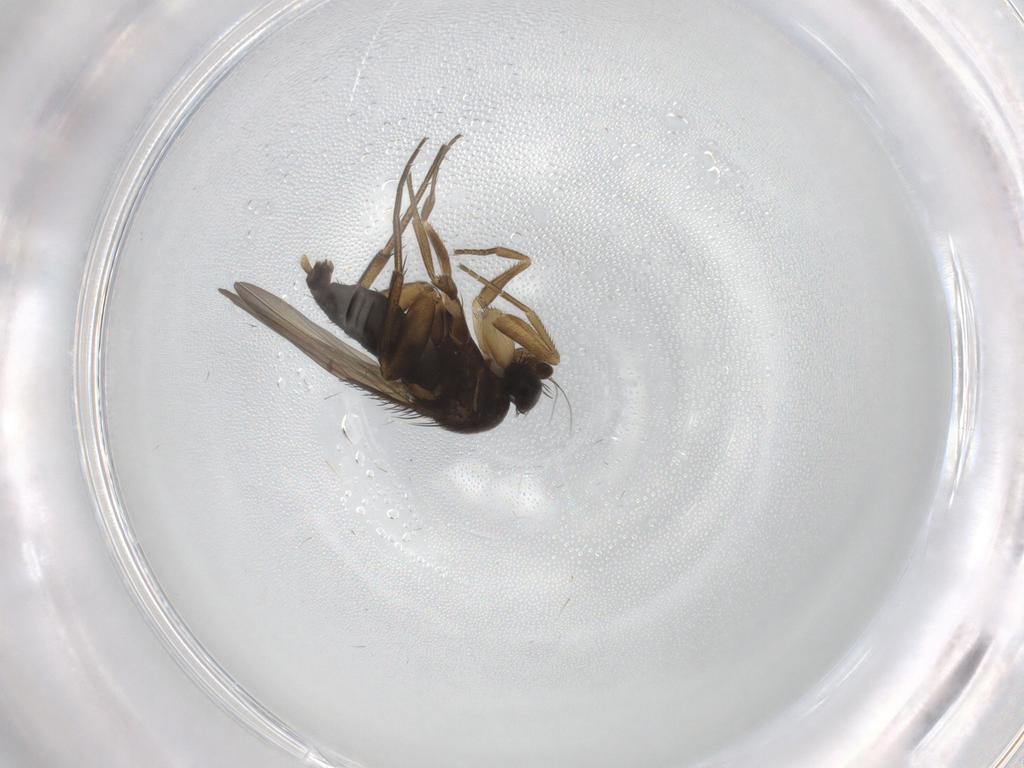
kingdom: Animalia
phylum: Arthropoda
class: Insecta
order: Diptera
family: Phoridae
